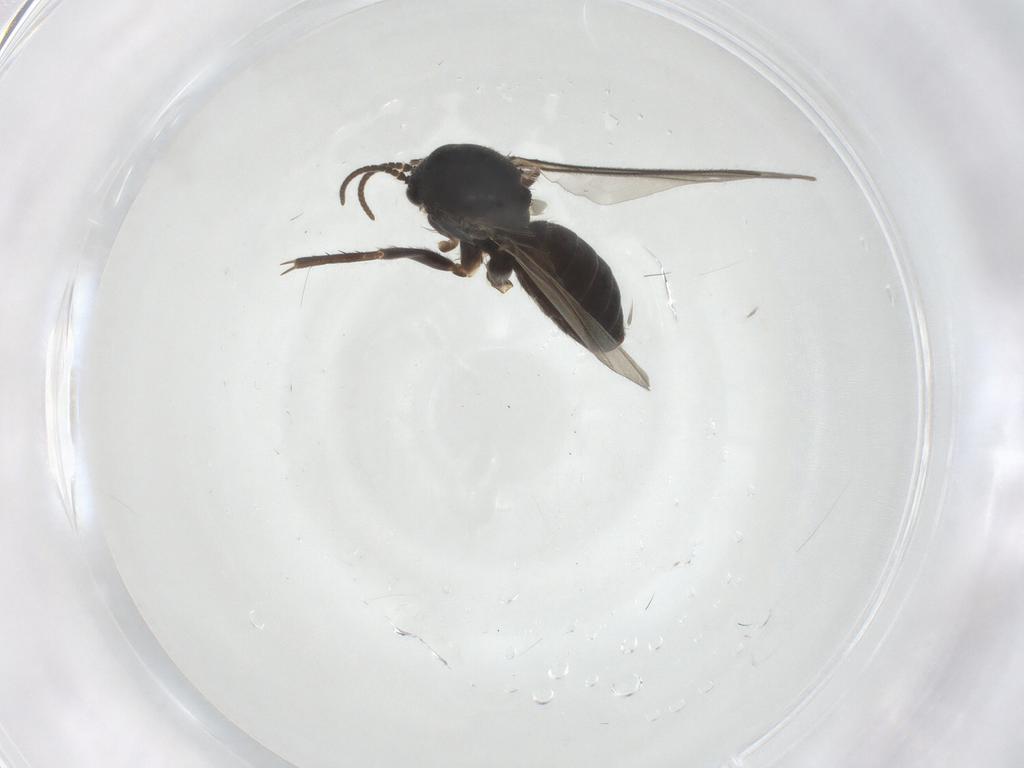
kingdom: Animalia
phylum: Arthropoda
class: Insecta
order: Diptera
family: Mycetophilidae
